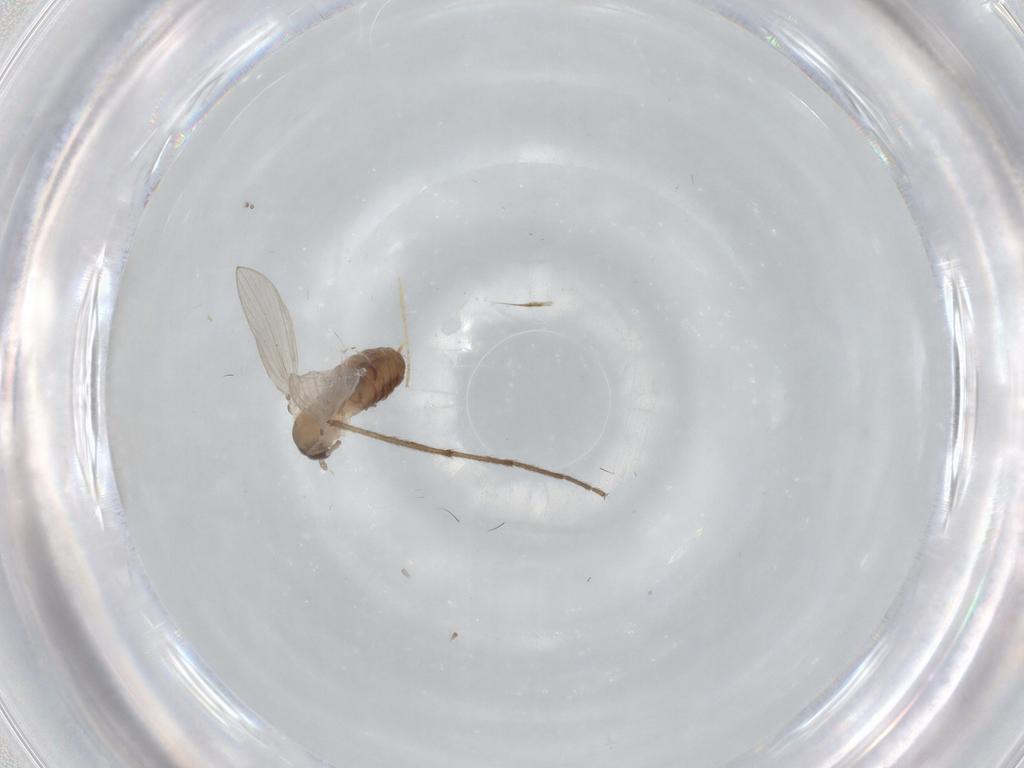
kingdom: Animalia
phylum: Arthropoda
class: Insecta
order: Diptera
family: Psychodidae
